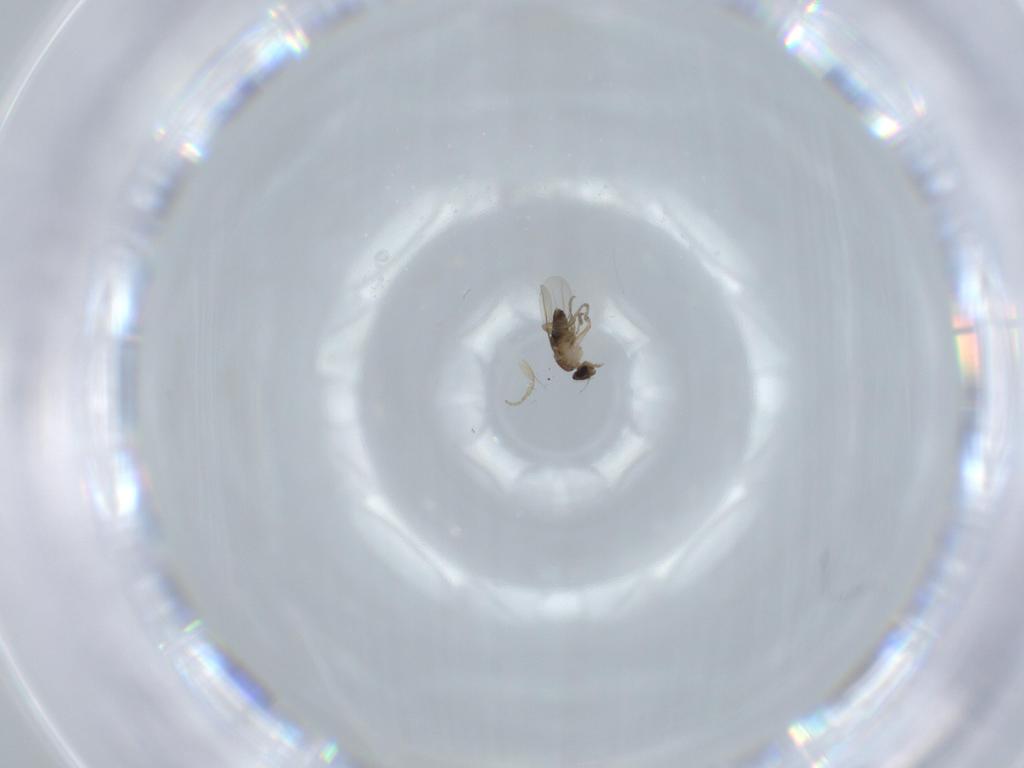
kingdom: Animalia
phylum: Arthropoda
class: Insecta
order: Diptera
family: Phoridae
